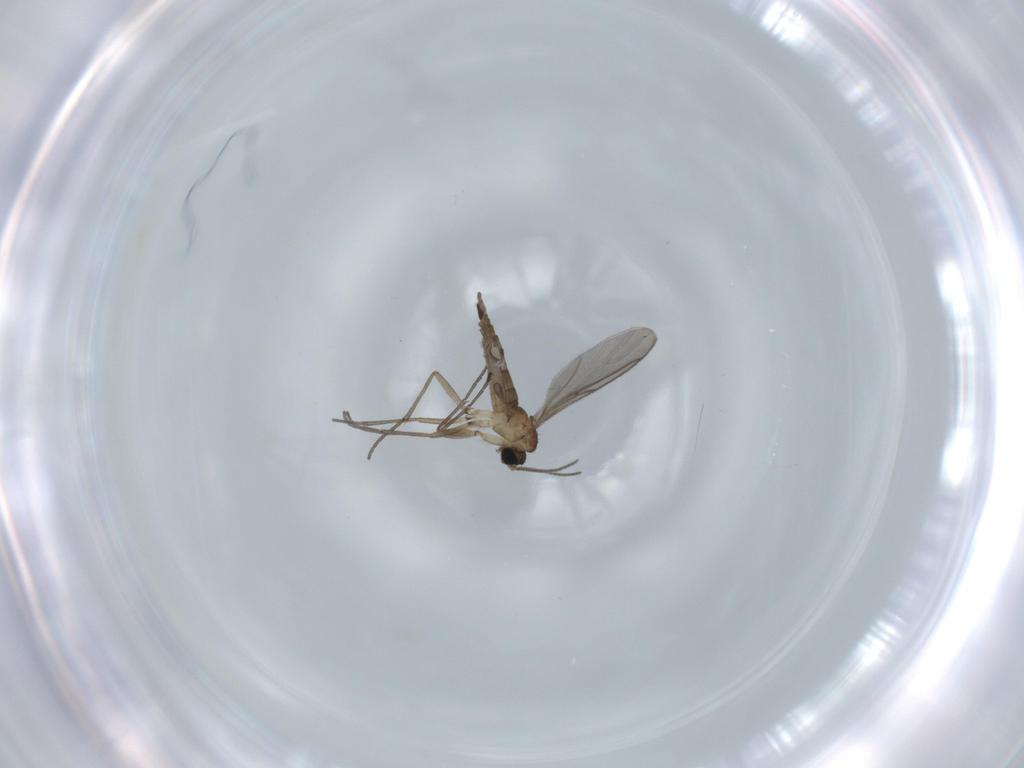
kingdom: Animalia
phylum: Arthropoda
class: Insecta
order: Diptera
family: Sciaridae
